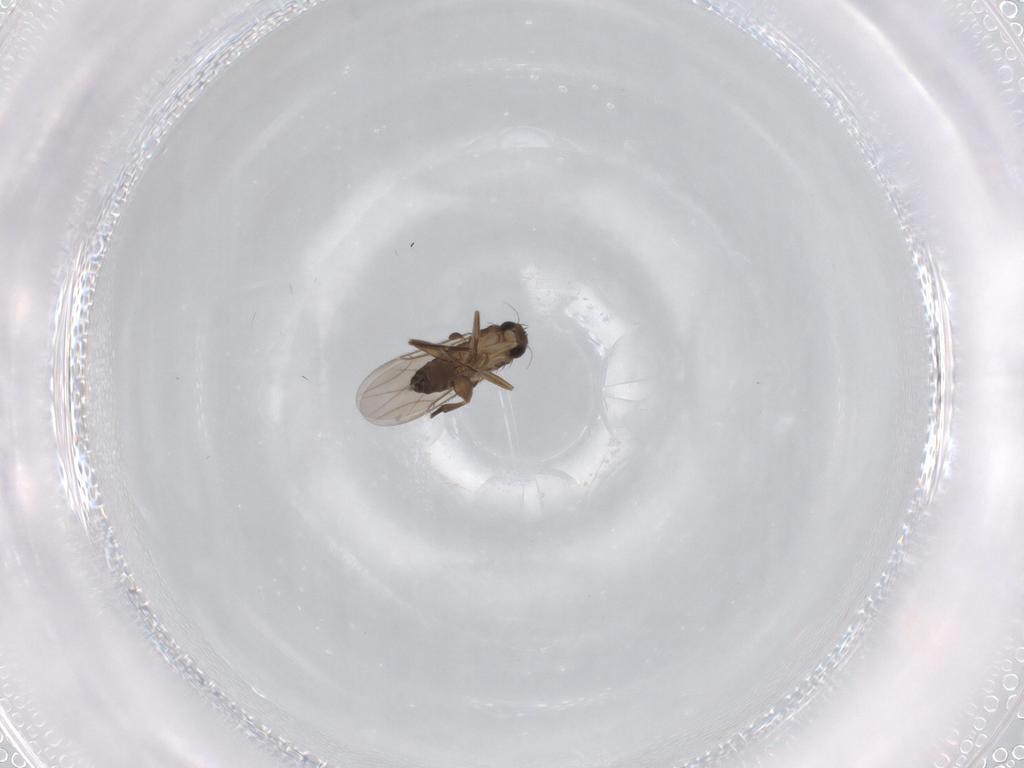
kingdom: Animalia
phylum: Arthropoda
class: Insecta
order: Diptera
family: Phoridae
